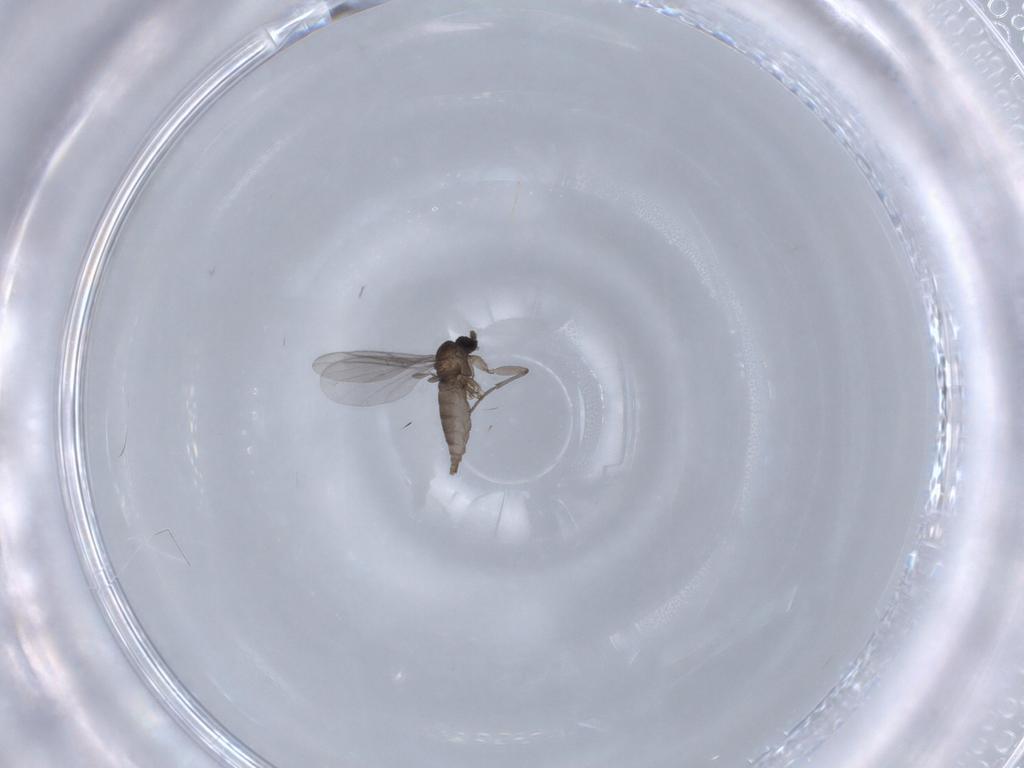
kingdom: Animalia
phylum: Arthropoda
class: Insecta
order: Diptera
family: Sciaridae
